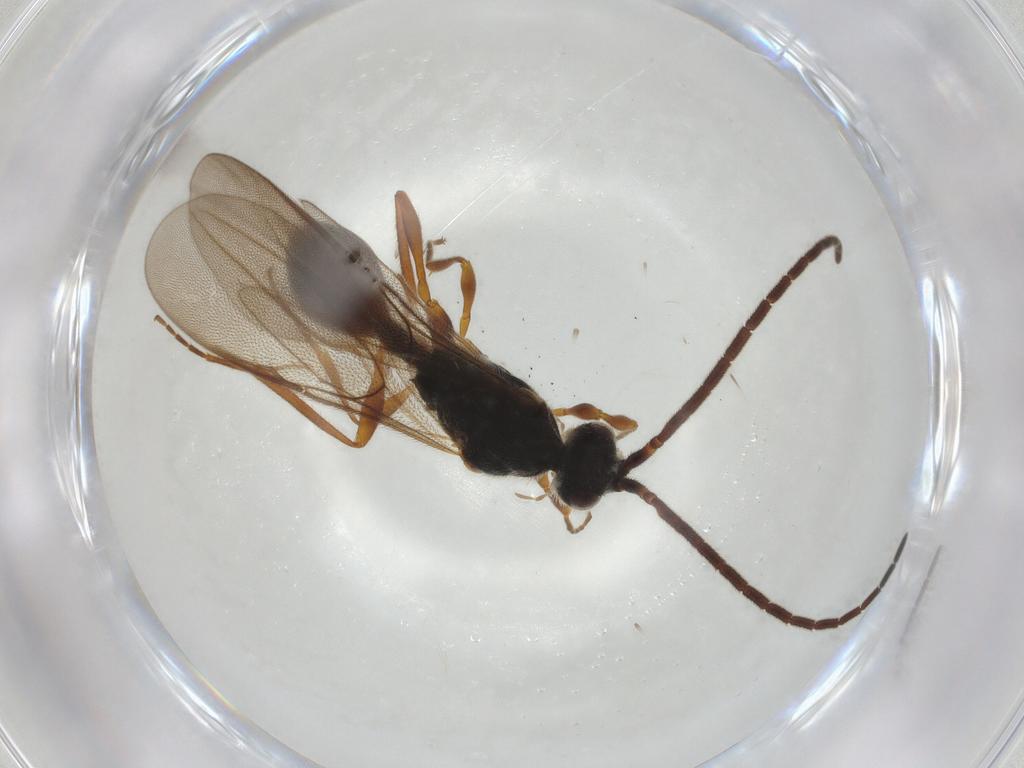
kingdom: Animalia
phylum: Arthropoda
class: Insecta
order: Hymenoptera
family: Diapriidae
